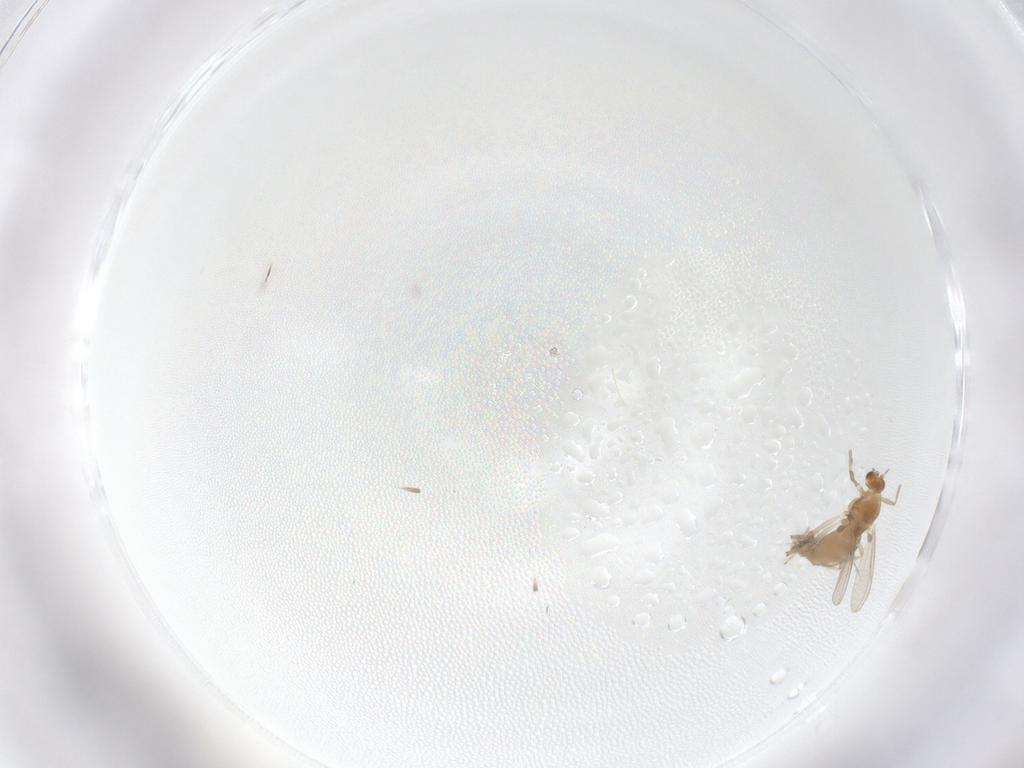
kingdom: Animalia
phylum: Arthropoda
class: Insecta
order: Diptera
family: Chironomidae
